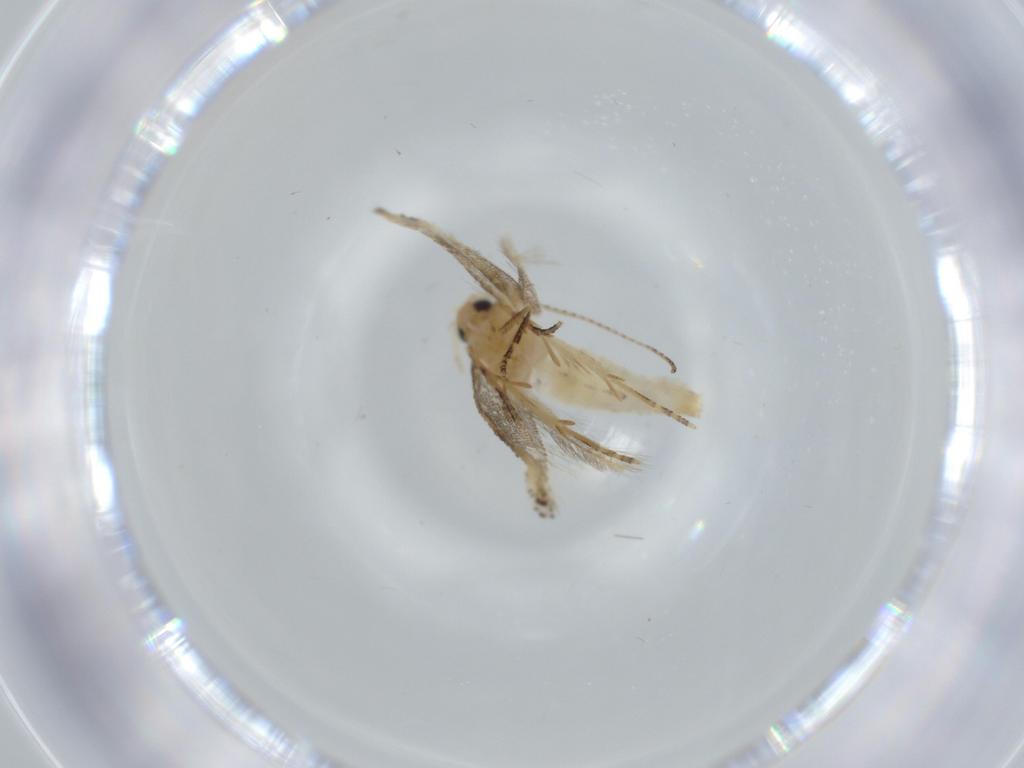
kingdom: Animalia
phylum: Arthropoda
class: Insecta
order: Lepidoptera
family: Bucculatricidae
